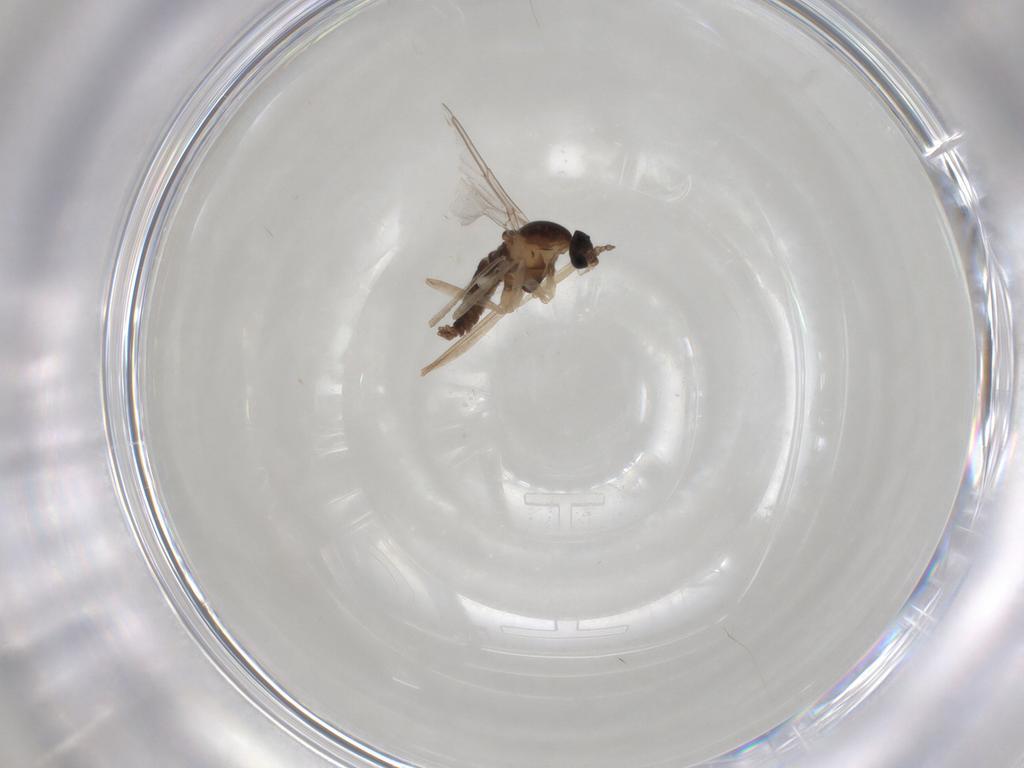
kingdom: Animalia
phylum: Arthropoda
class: Insecta
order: Diptera
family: Cecidomyiidae
